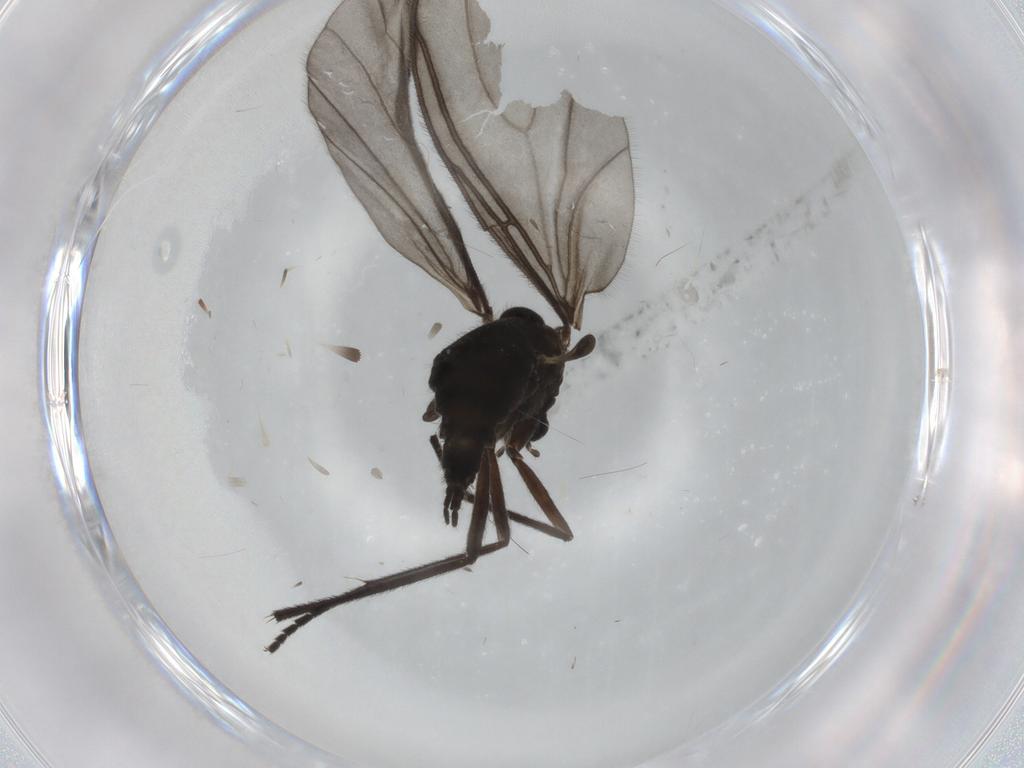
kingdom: Animalia
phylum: Arthropoda
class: Insecta
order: Diptera
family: Sciaridae
